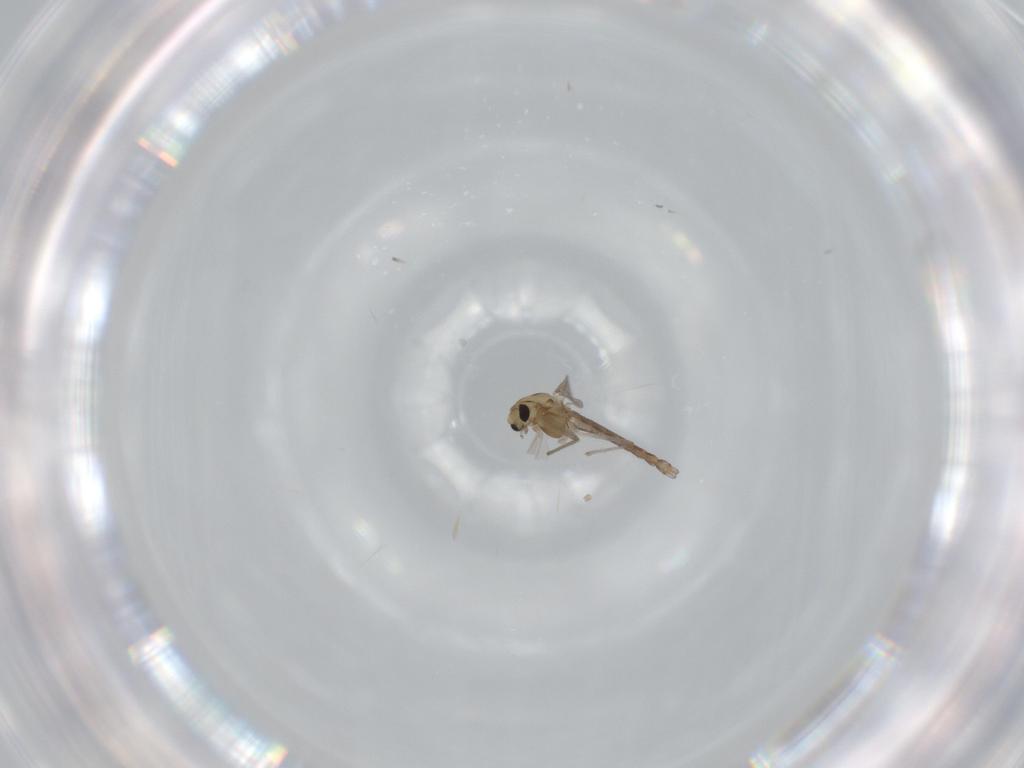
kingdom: Animalia
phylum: Arthropoda
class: Insecta
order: Diptera
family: Chironomidae
